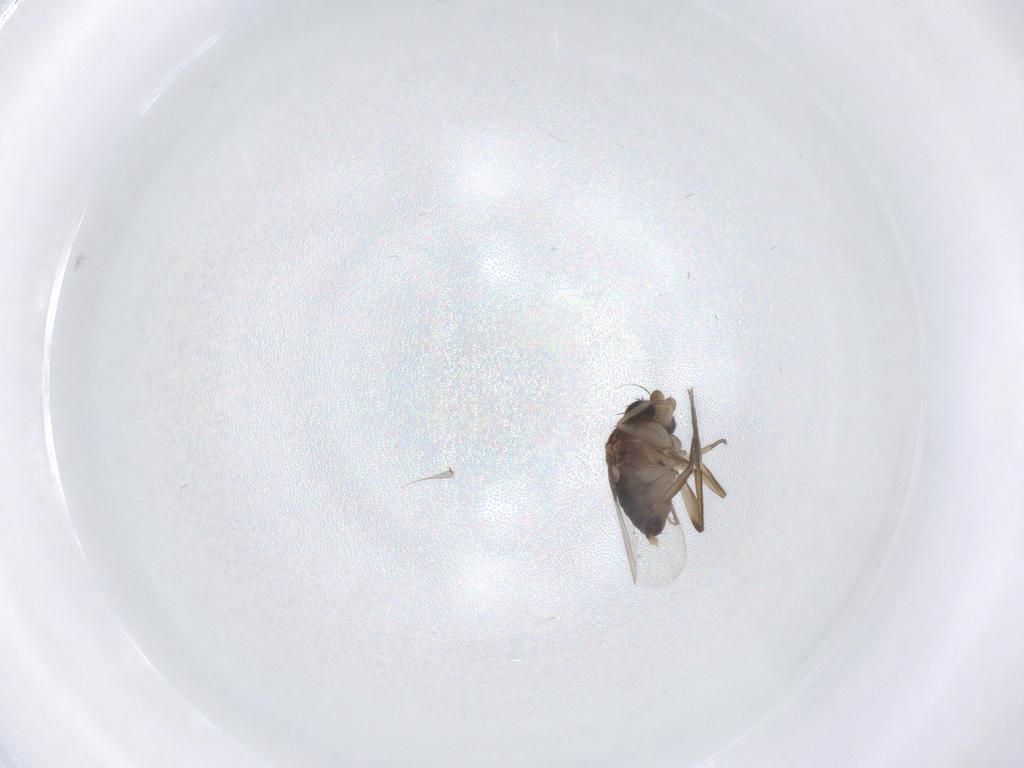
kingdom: Animalia
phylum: Arthropoda
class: Insecta
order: Diptera
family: Phoridae
